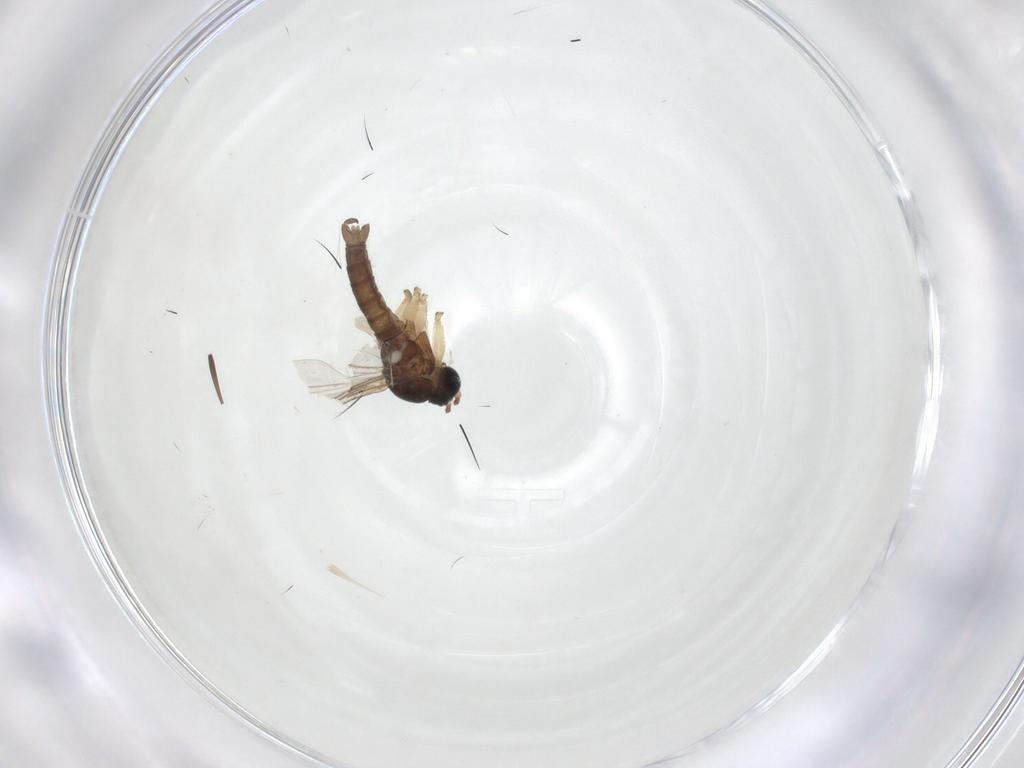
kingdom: Animalia
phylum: Arthropoda
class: Insecta
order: Diptera
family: Sciaridae
